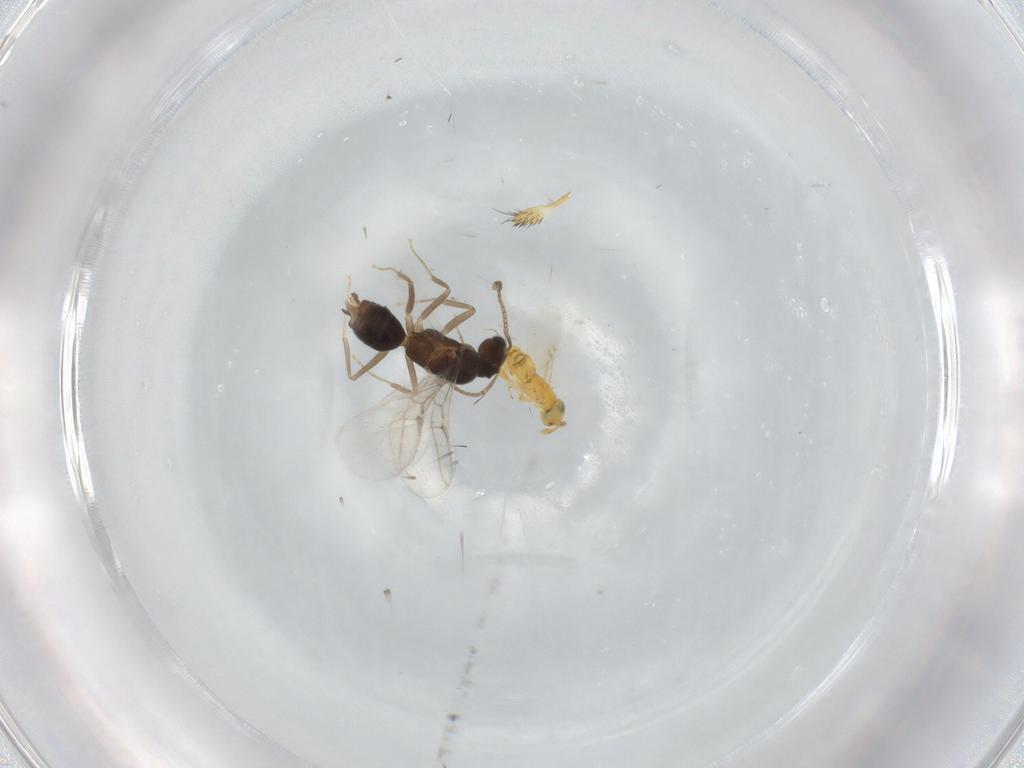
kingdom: Animalia
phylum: Arthropoda
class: Insecta
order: Hymenoptera
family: Formicidae
